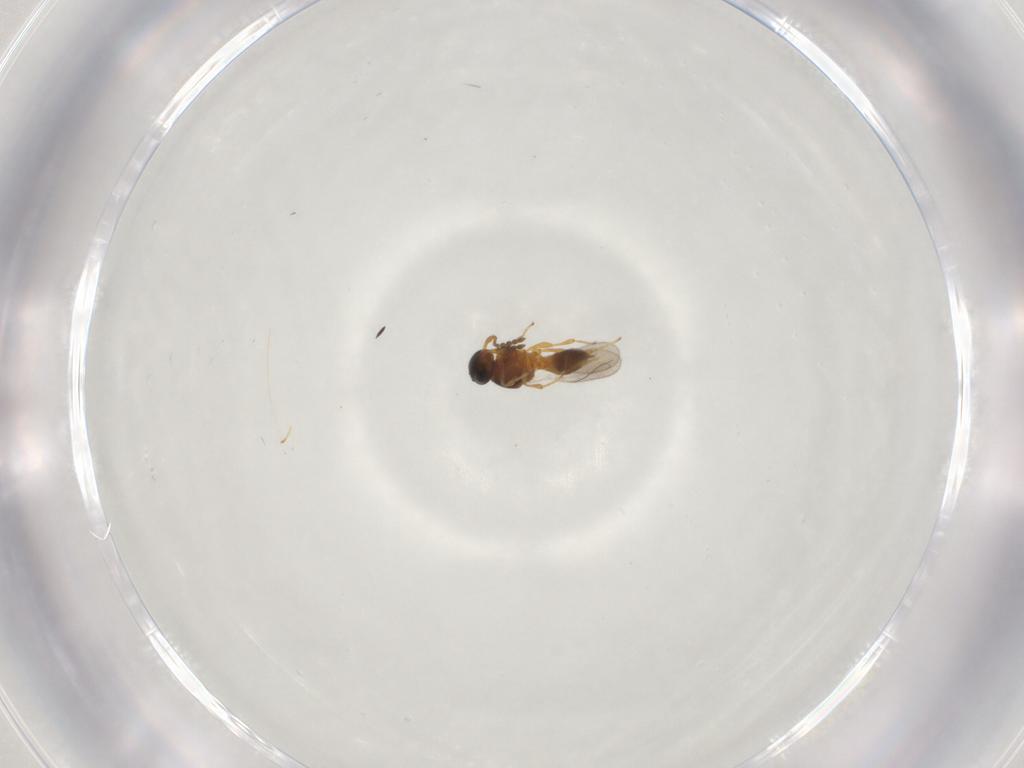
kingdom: Animalia
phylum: Arthropoda
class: Insecta
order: Hymenoptera
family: Platygastridae
